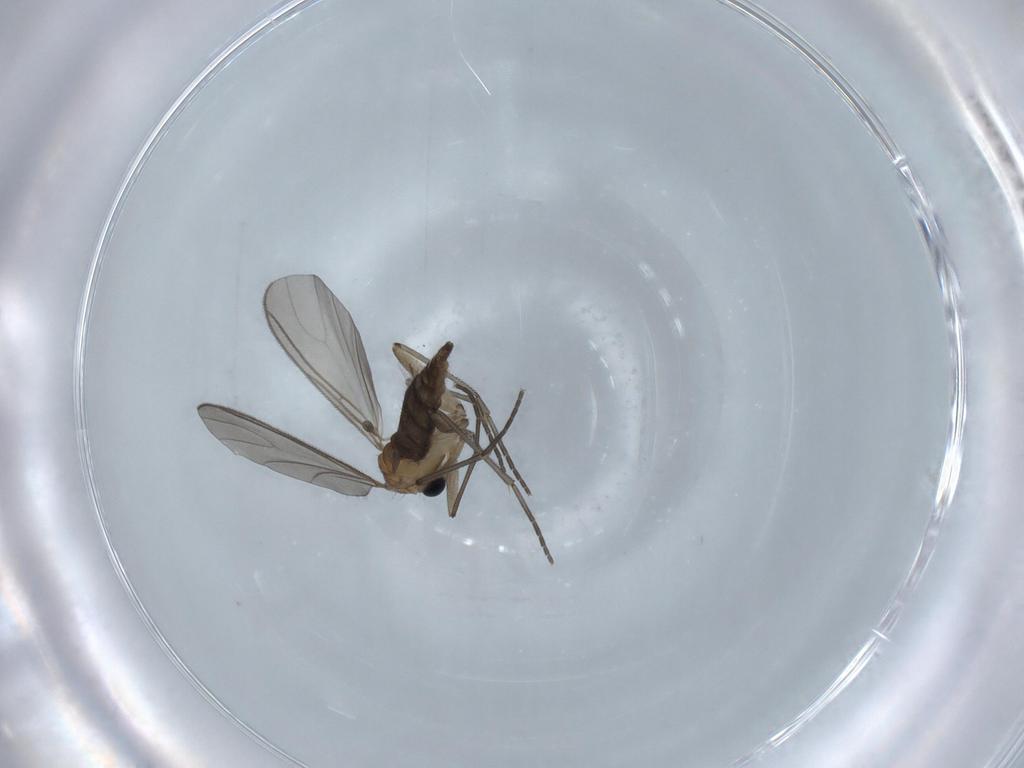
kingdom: Animalia
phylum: Arthropoda
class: Insecta
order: Diptera
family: Sciaridae
